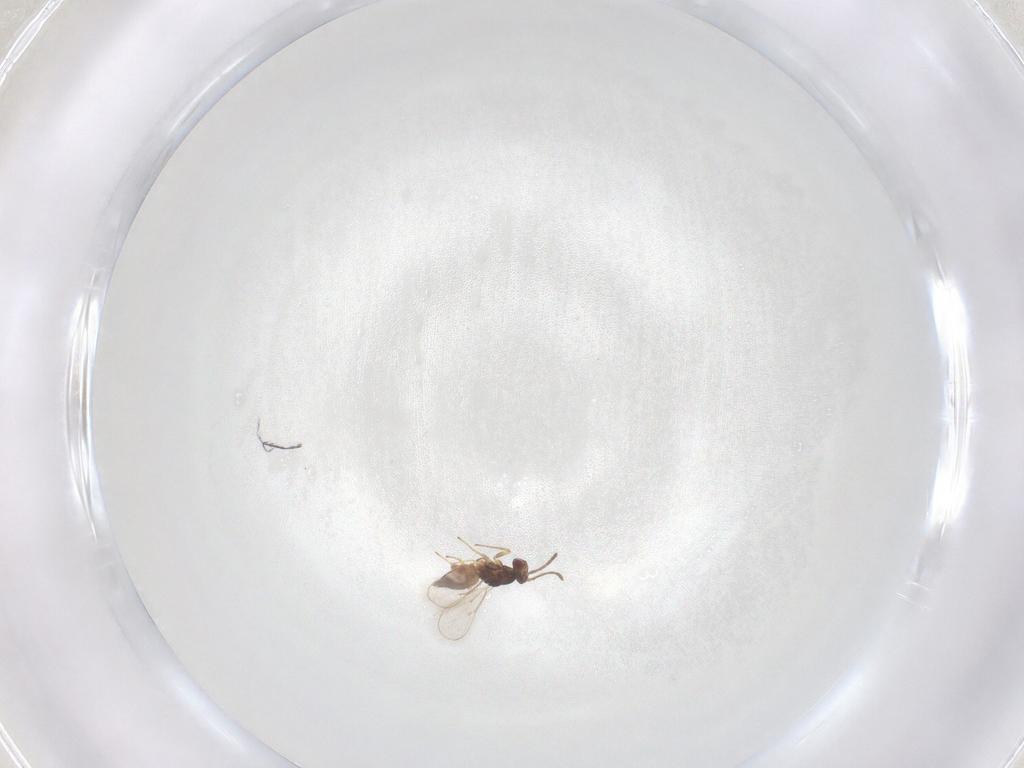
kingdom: Animalia
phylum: Arthropoda
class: Insecta
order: Hymenoptera
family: Eulophidae
